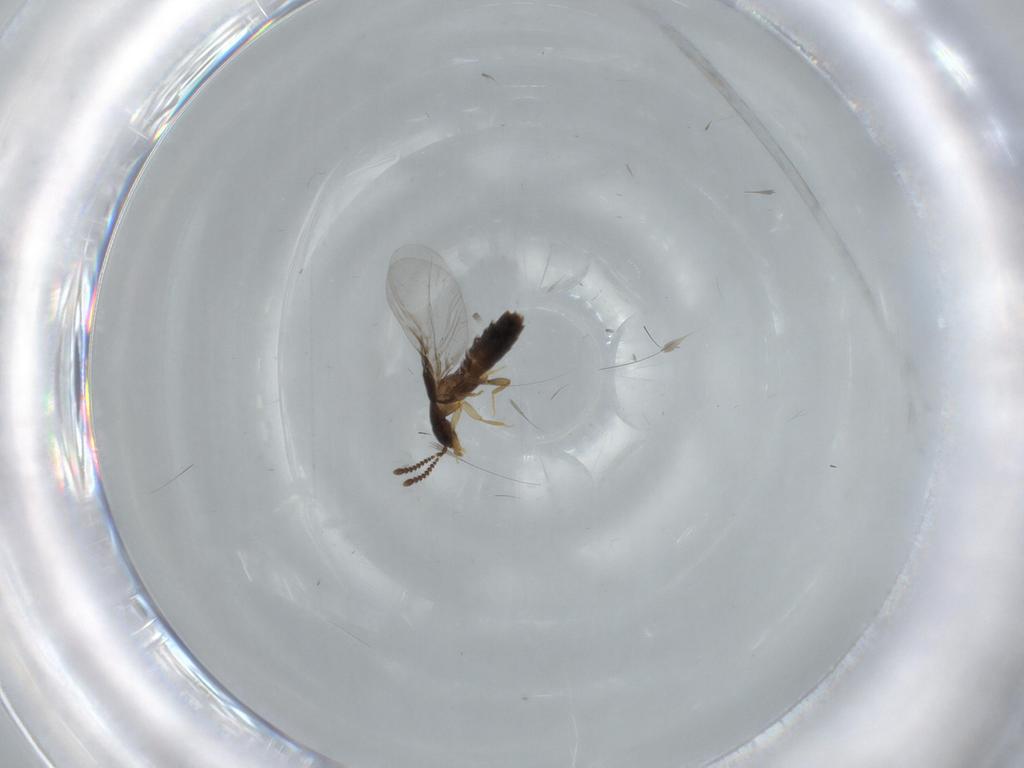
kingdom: Animalia
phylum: Arthropoda
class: Insecta
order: Coleoptera
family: Staphylinidae
